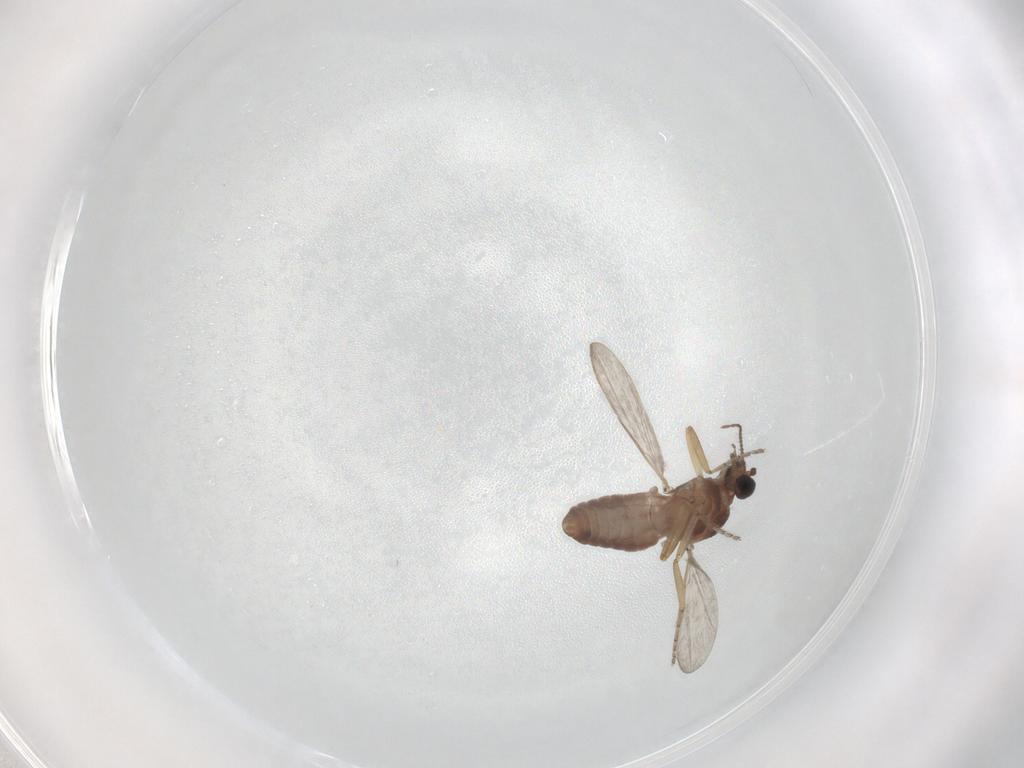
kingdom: Animalia
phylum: Arthropoda
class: Insecta
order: Diptera
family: Ceratopogonidae
